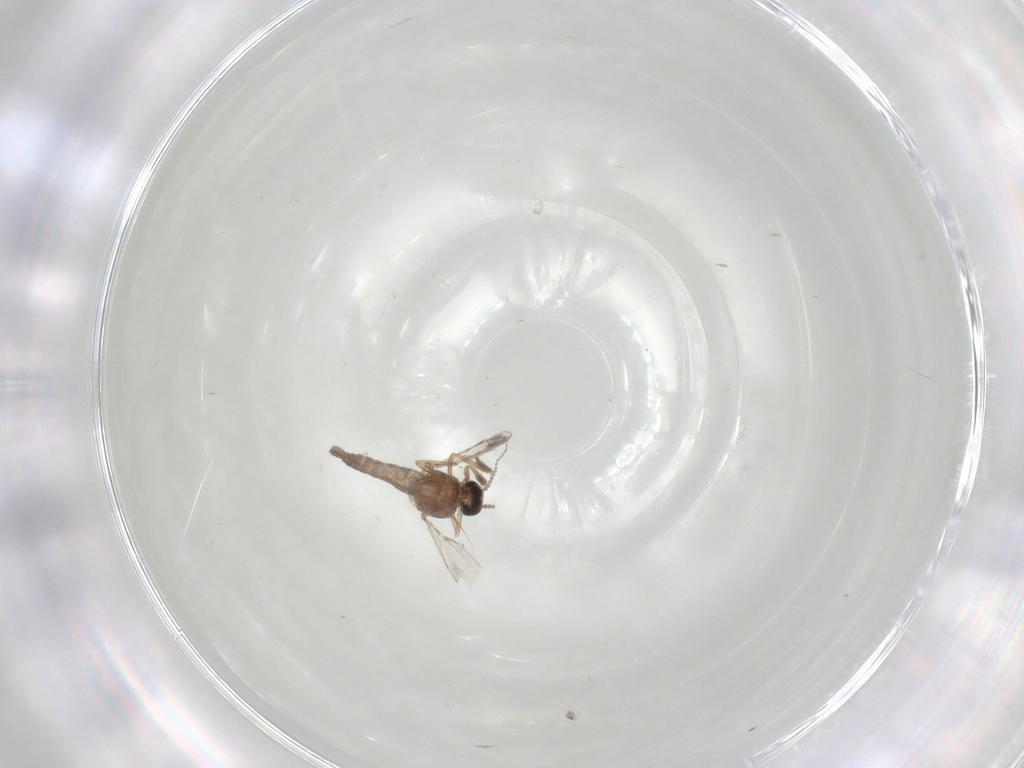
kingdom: Animalia
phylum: Arthropoda
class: Insecta
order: Diptera
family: Ceratopogonidae
